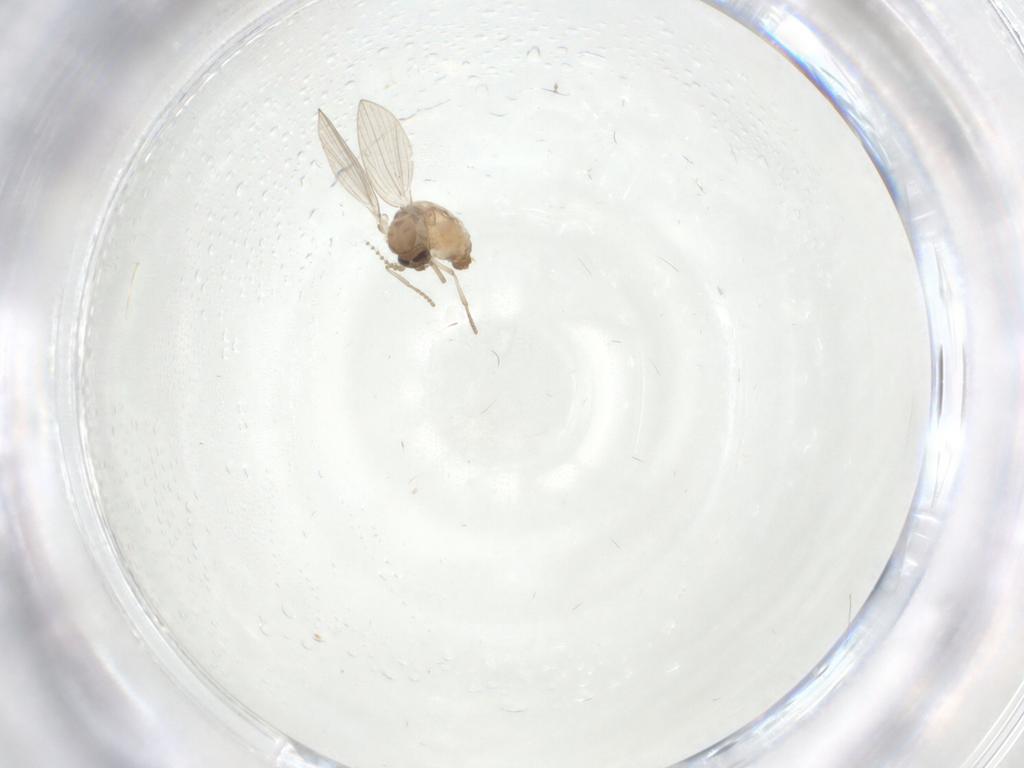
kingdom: Animalia
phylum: Arthropoda
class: Insecta
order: Diptera
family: Psychodidae
